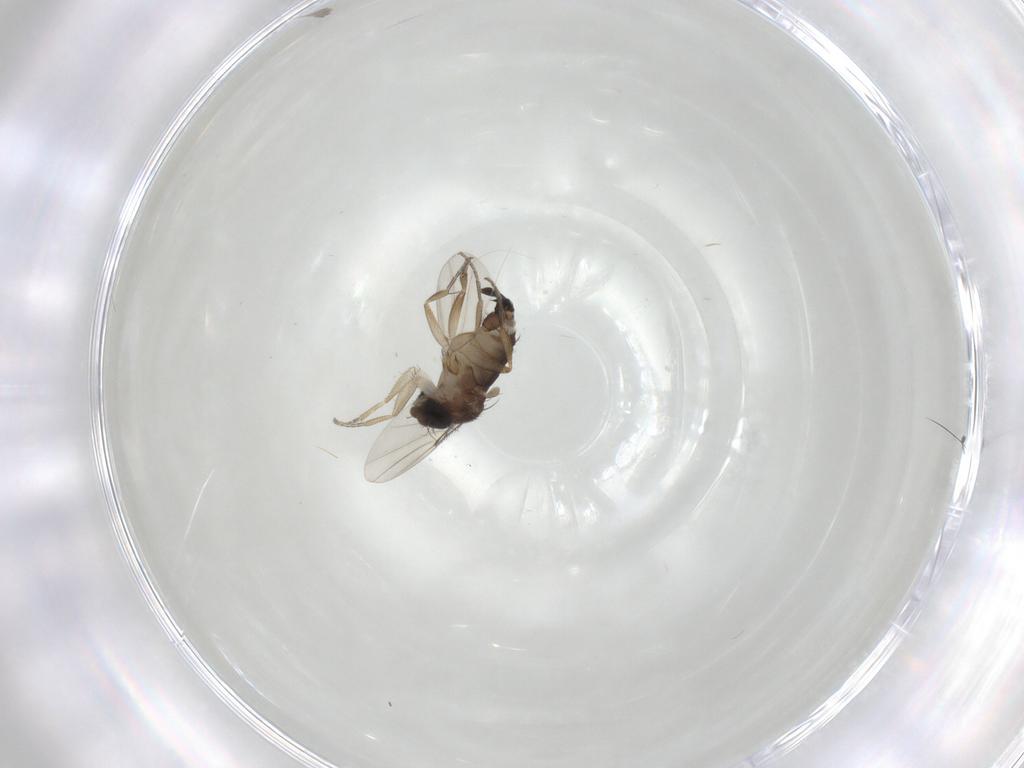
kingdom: Animalia
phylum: Arthropoda
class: Insecta
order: Diptera
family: Phoridae
